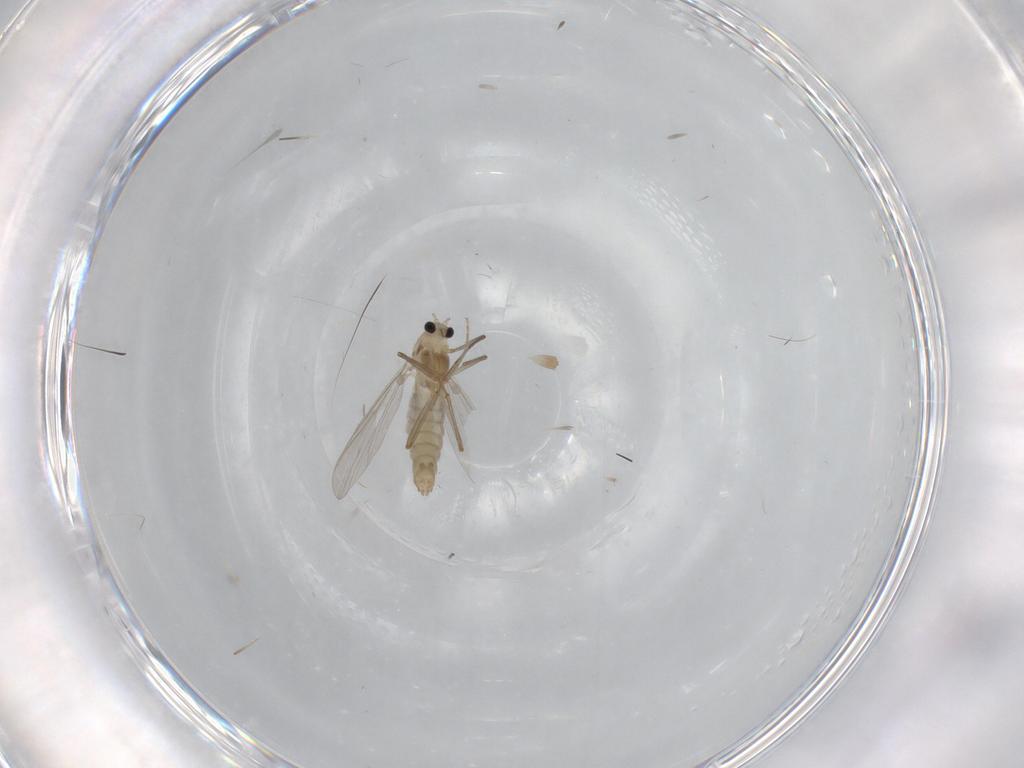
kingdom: Animalia
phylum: Arthropoda
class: Insecta
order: Diptera
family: Chironomidae
